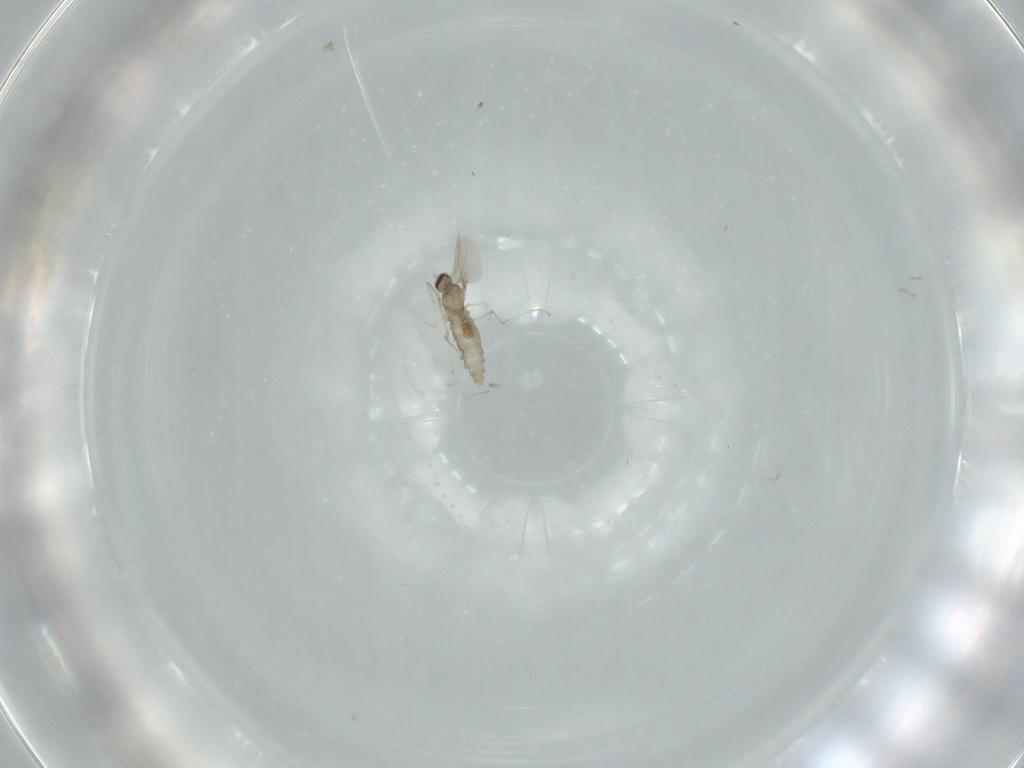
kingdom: Animalia
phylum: Arthropoda
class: Insecta
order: Diptera
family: Cecidomyiidae
